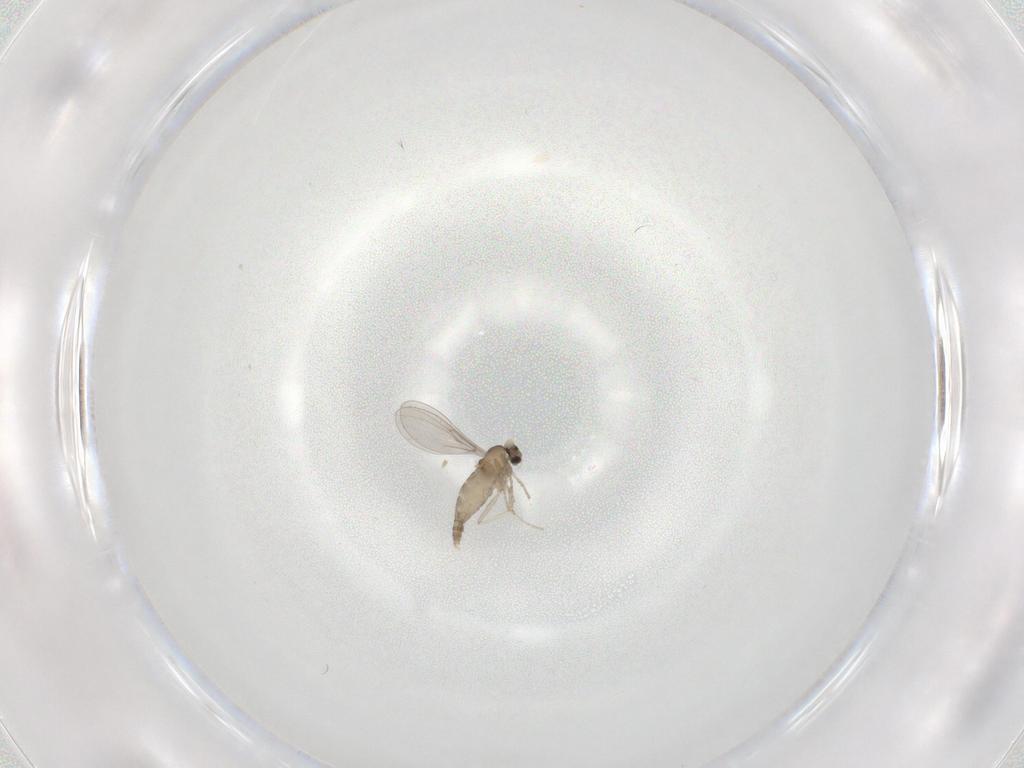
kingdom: Animalia
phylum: Arthropoda
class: Insecta
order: Diptera
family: Cecidomyiidae
